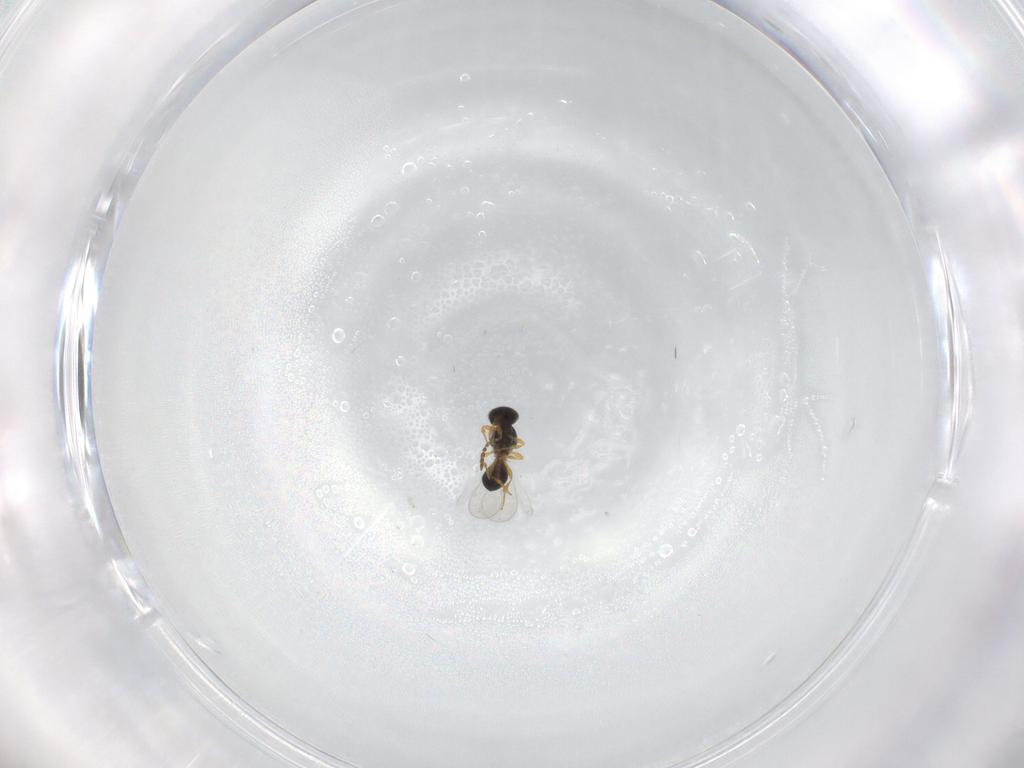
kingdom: Animalia
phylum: Arthropoda
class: Insecta
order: Hymenoptera
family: Platygastridae
